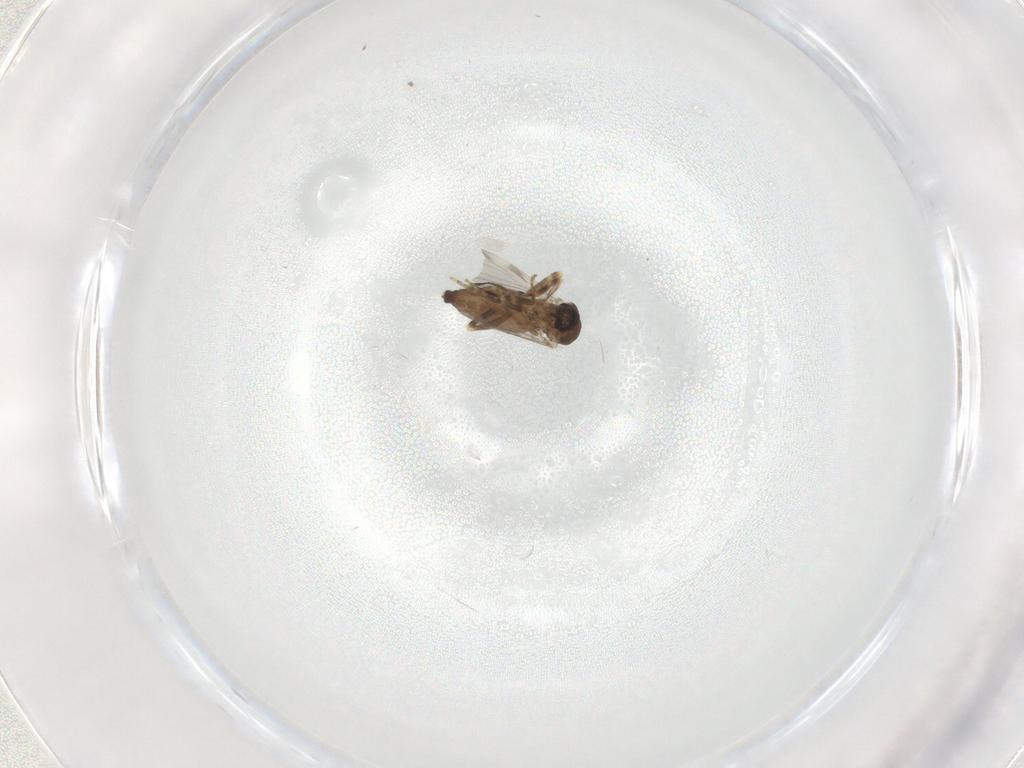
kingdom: Animalia
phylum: Arthropoda
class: Insecta
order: Diptera
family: Ceratopogonidae
